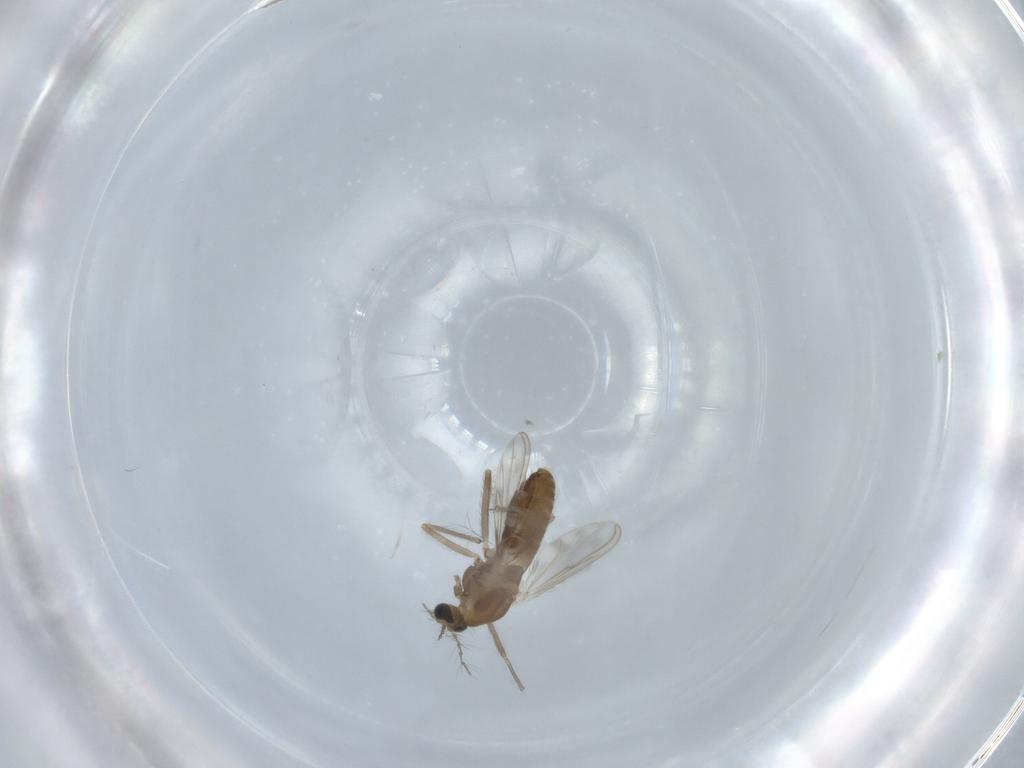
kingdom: Animalia
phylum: Arthropoda
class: Insecta
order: Diptera
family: Chironomidae
